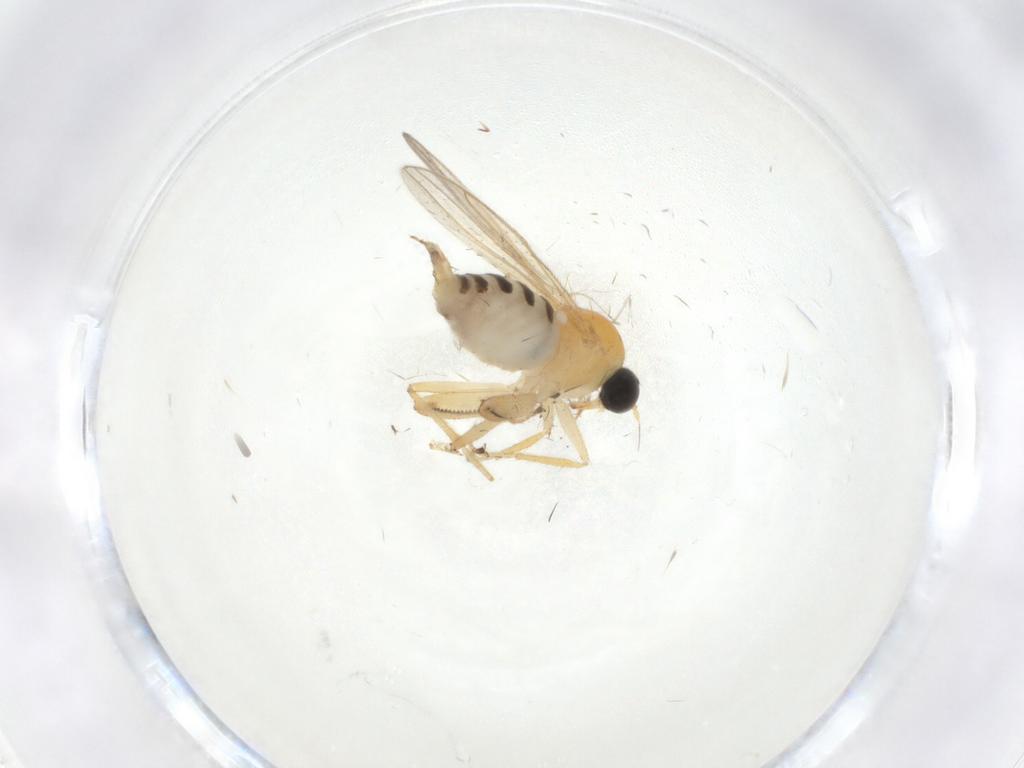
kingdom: Animalia
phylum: Arthropoda
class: Insecta
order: Diptera
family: Hybotidae
